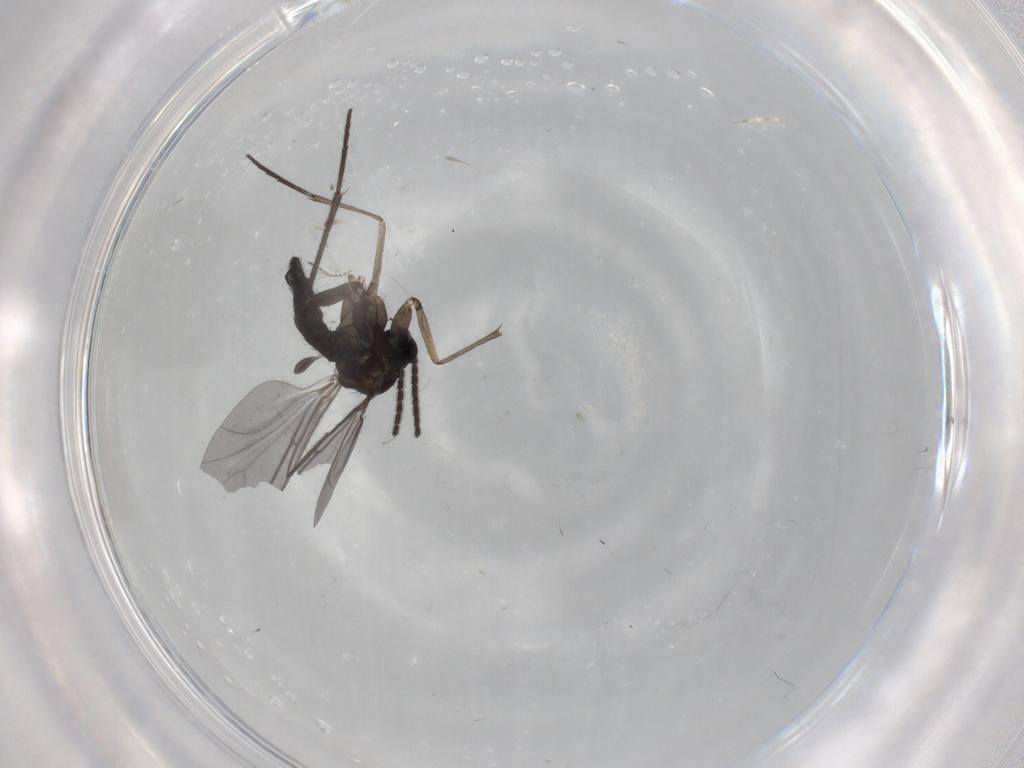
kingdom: Animalia
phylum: Arthropoda
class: Insecta
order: Diptera
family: Sciaridae
